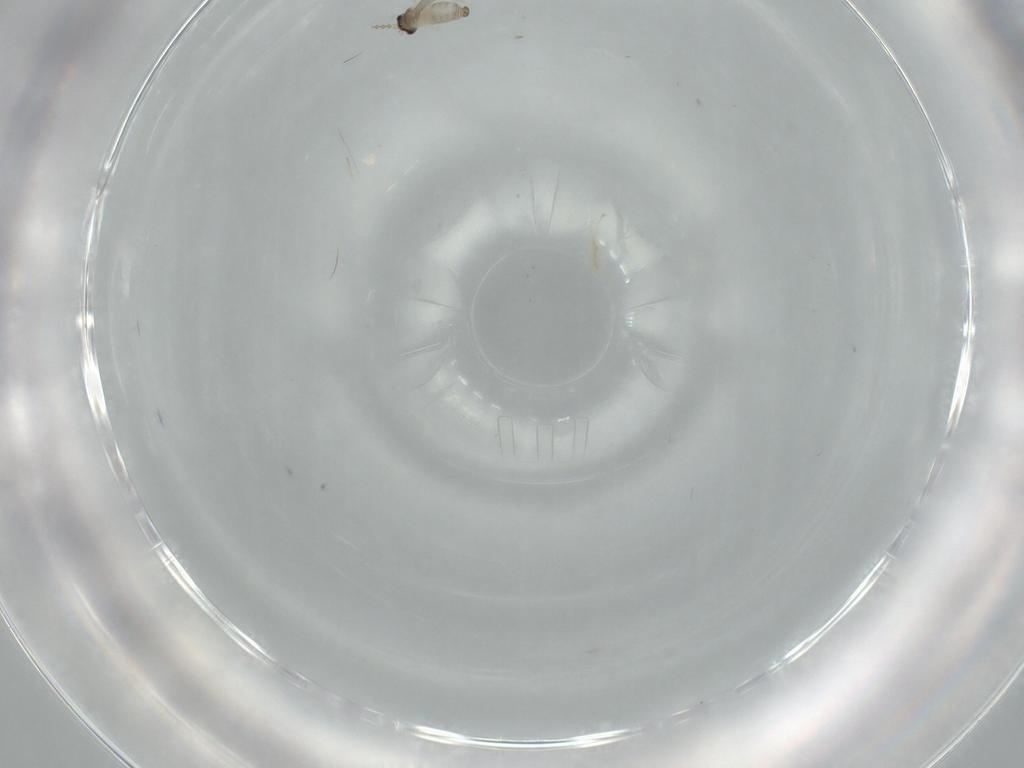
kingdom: Animalia
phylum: Arthropoda
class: Insecta
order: Diptera
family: Cecidomyiidae
